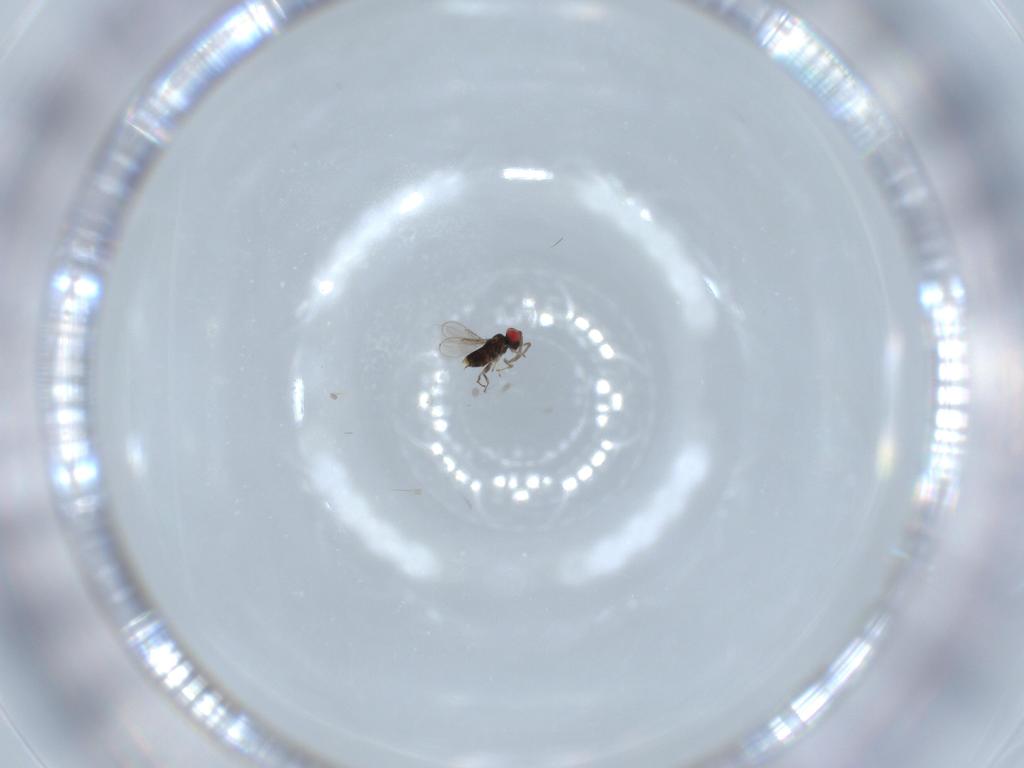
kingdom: Animalia
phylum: Arthropoda
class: Insecta
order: Hymenoptera
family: Azotidae
